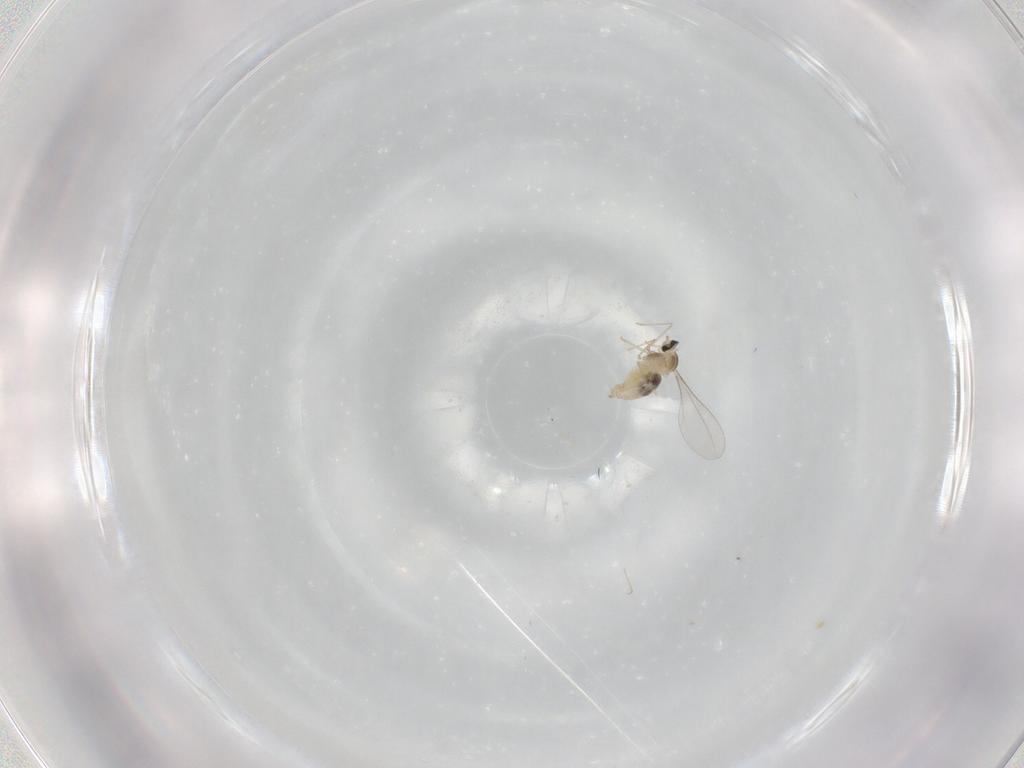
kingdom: Animalia
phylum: Arthropoda
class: Insecta
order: Diptera
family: Cecidomyiidae
